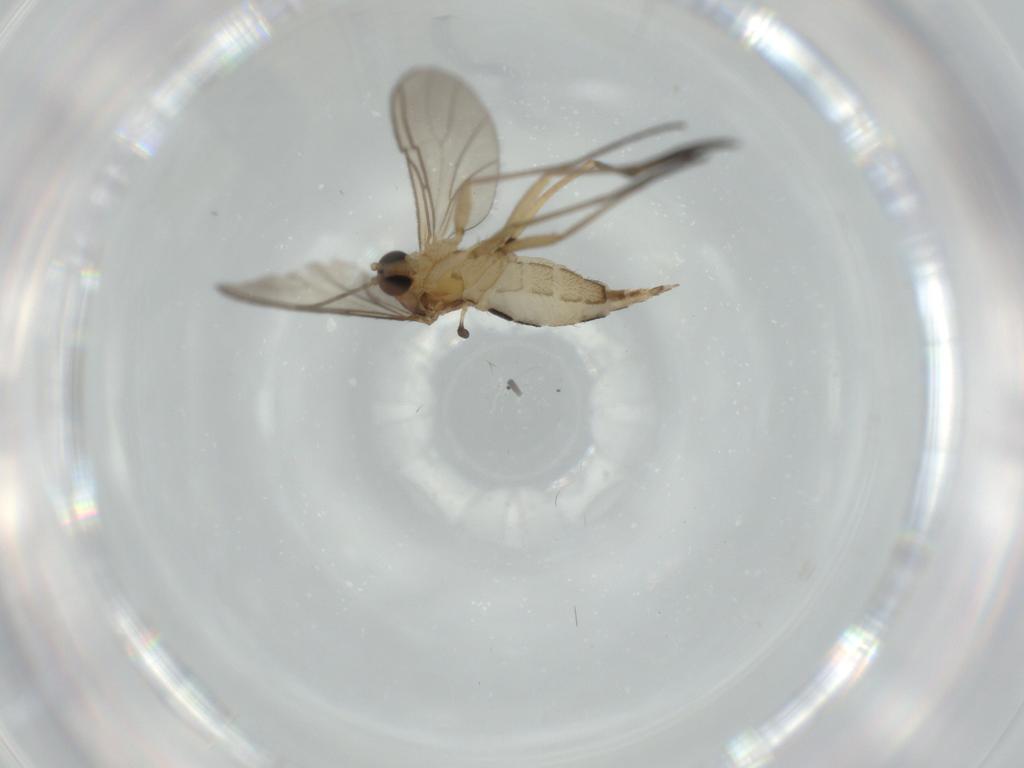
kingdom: Animalia
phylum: Arthropoda
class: Insecta
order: Diptera
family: Sciaridae
